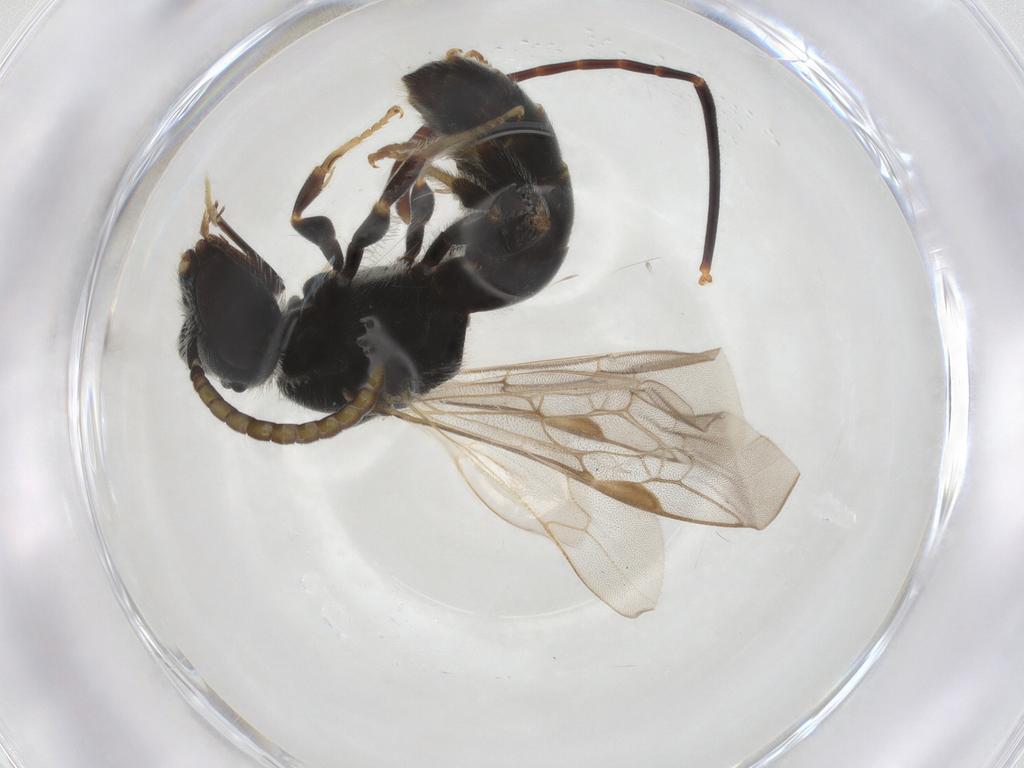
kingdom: Animalia
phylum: Arthropoda
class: Insecta
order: Hymenoptera
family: Formicidae
